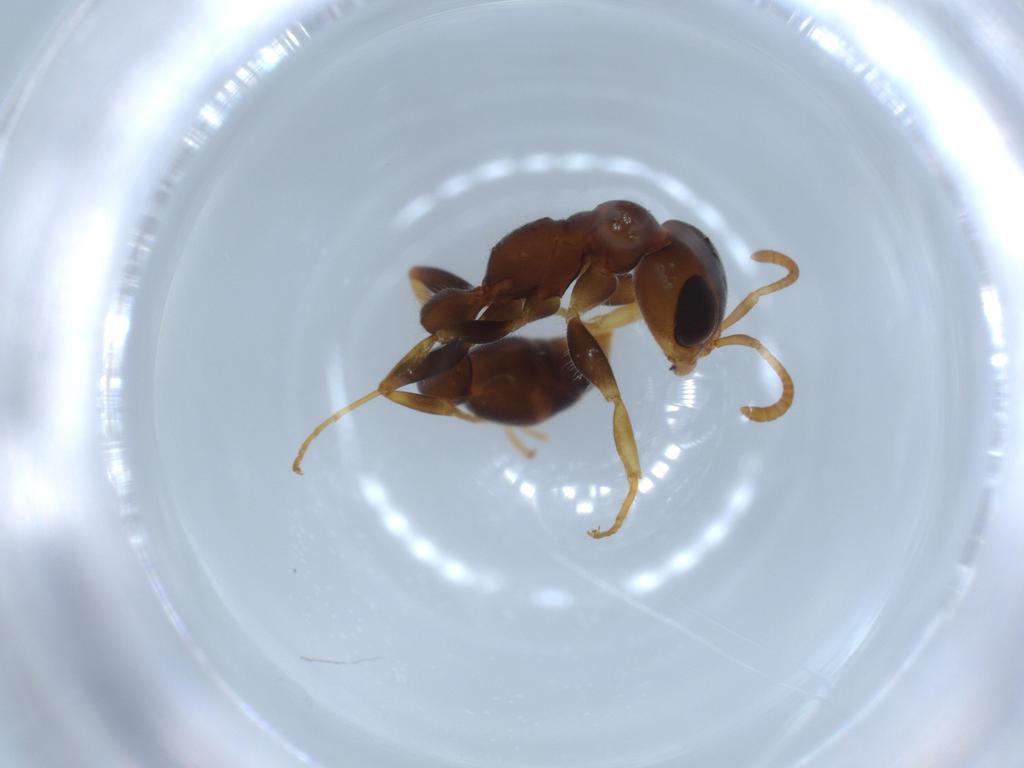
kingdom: Animalia
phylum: Arthropoda
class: Insecta
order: Hymenoptera
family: Formicidae
